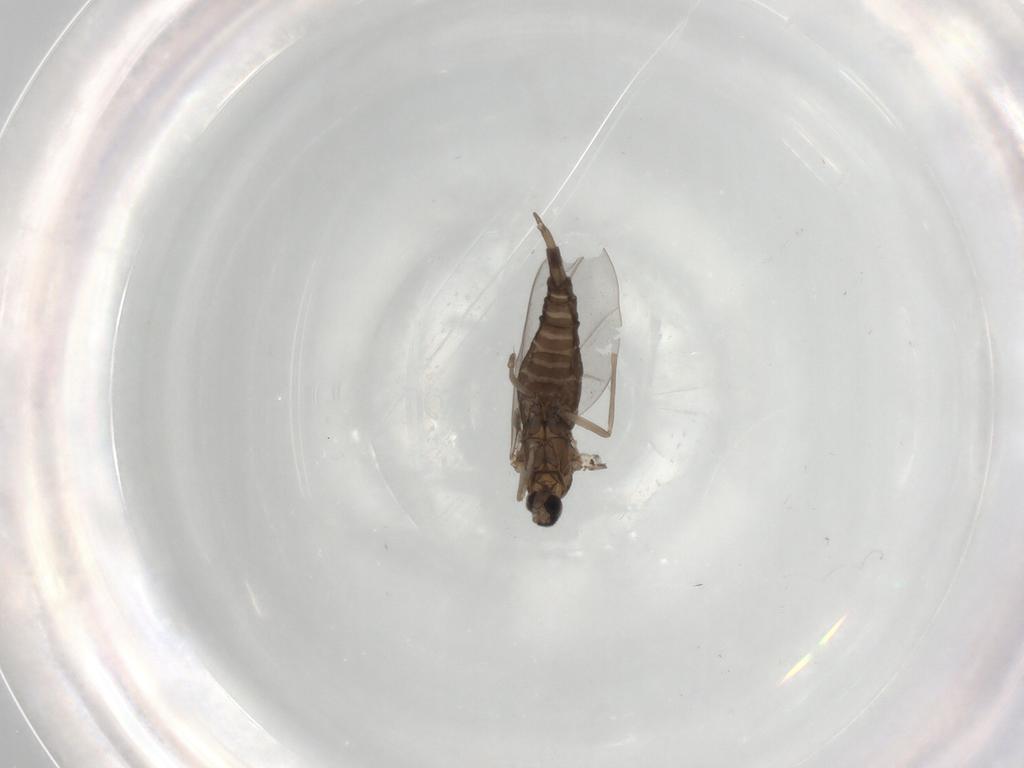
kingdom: Animalia
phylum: Arthropoda
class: Insecta
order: Diptera
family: Cecidomyiidae
